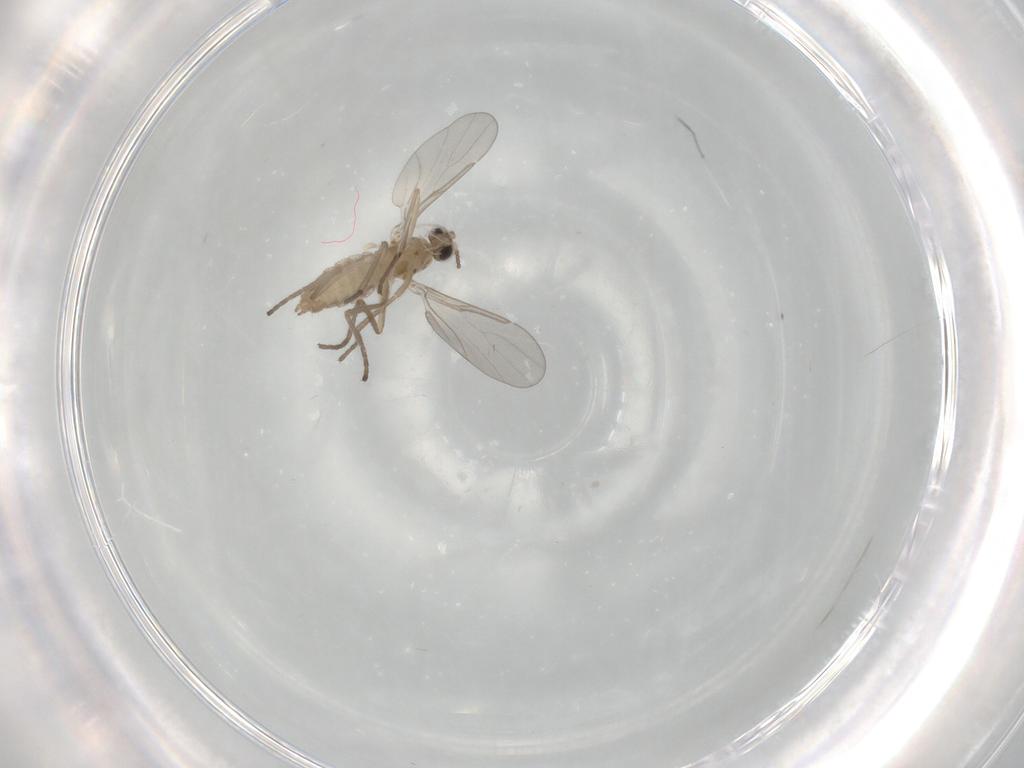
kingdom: Animalia
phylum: Arthropoda
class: Insecta
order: Diptera
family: Cecidomyiidae
